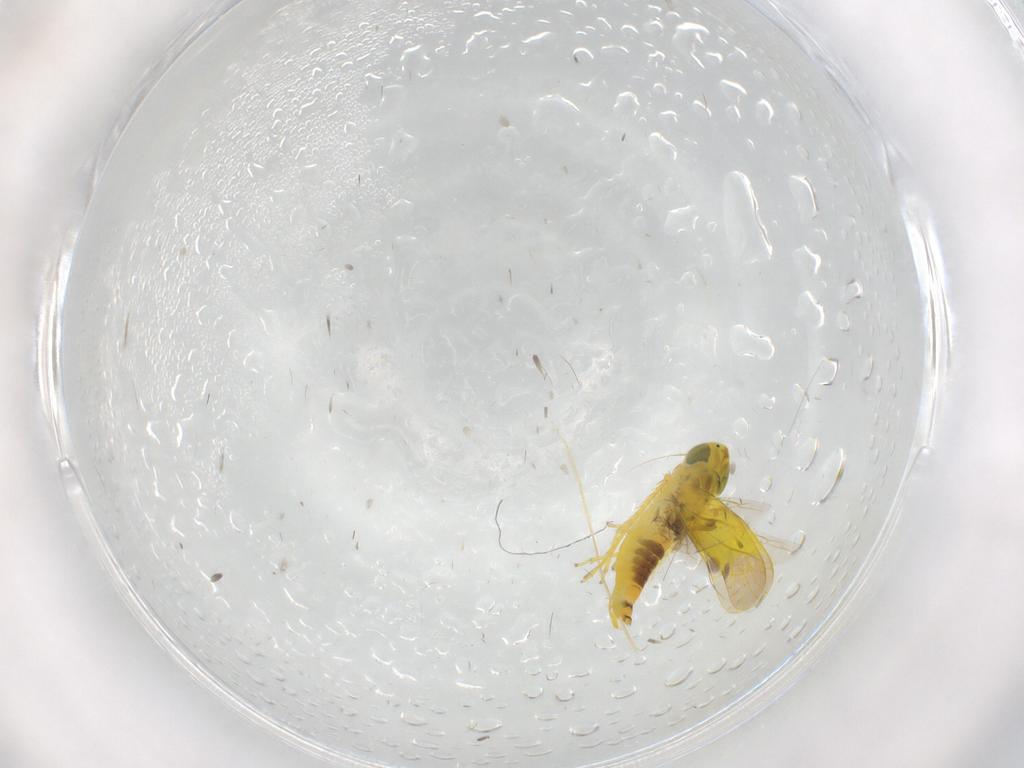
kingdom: Animalia
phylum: Arthropoda
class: Insecta
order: Hemiptera
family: Cicadellidae
